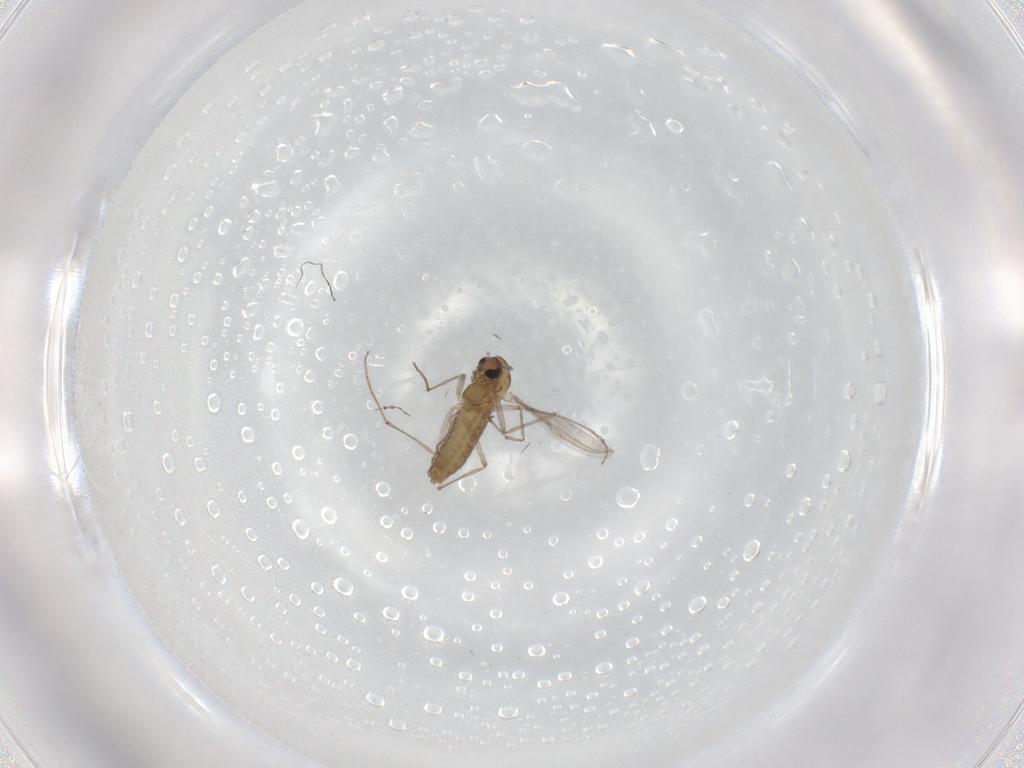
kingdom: Animalia
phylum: Arthropoda
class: Insecta
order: Diptera
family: Chironomidae
